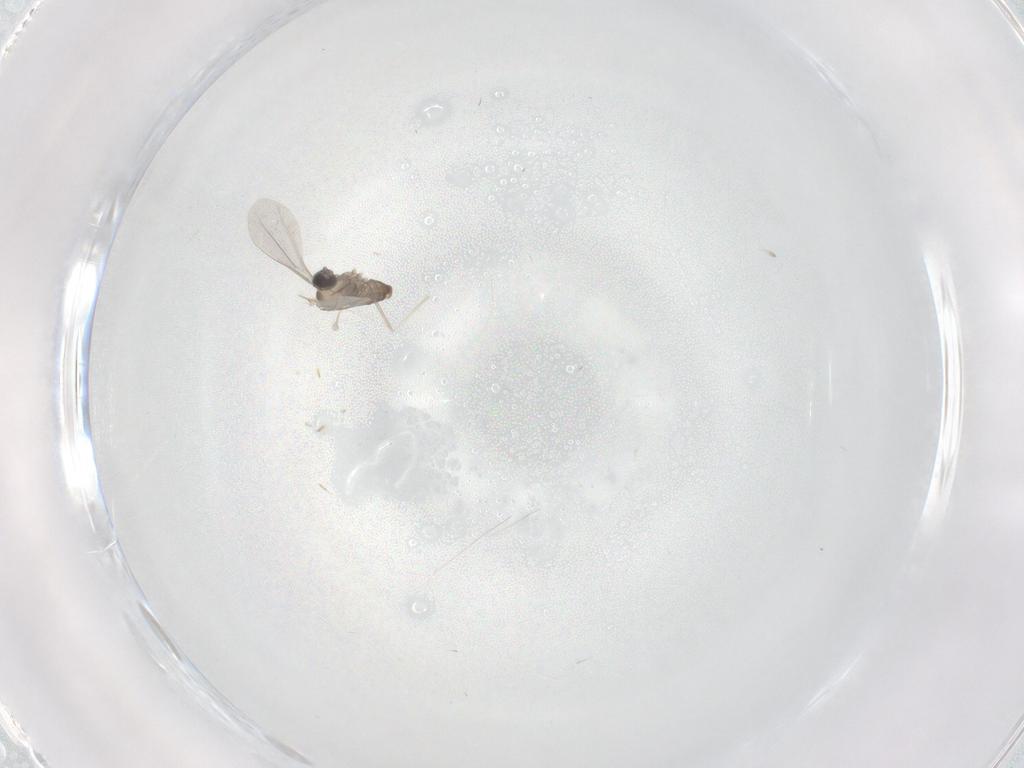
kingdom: Animalia
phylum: Arthropoda
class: Insecta
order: Diptera
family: Cecidomyiidae
